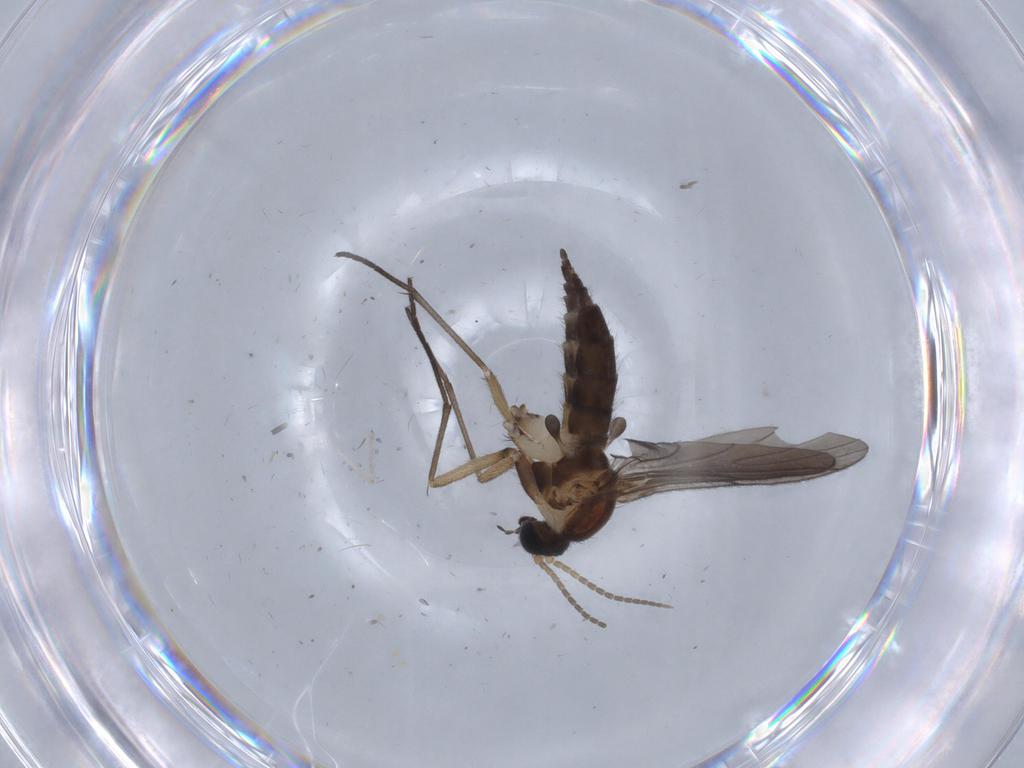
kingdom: Animalia
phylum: Arthropoda
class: Insecta
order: Diptera
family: Sciaridae
